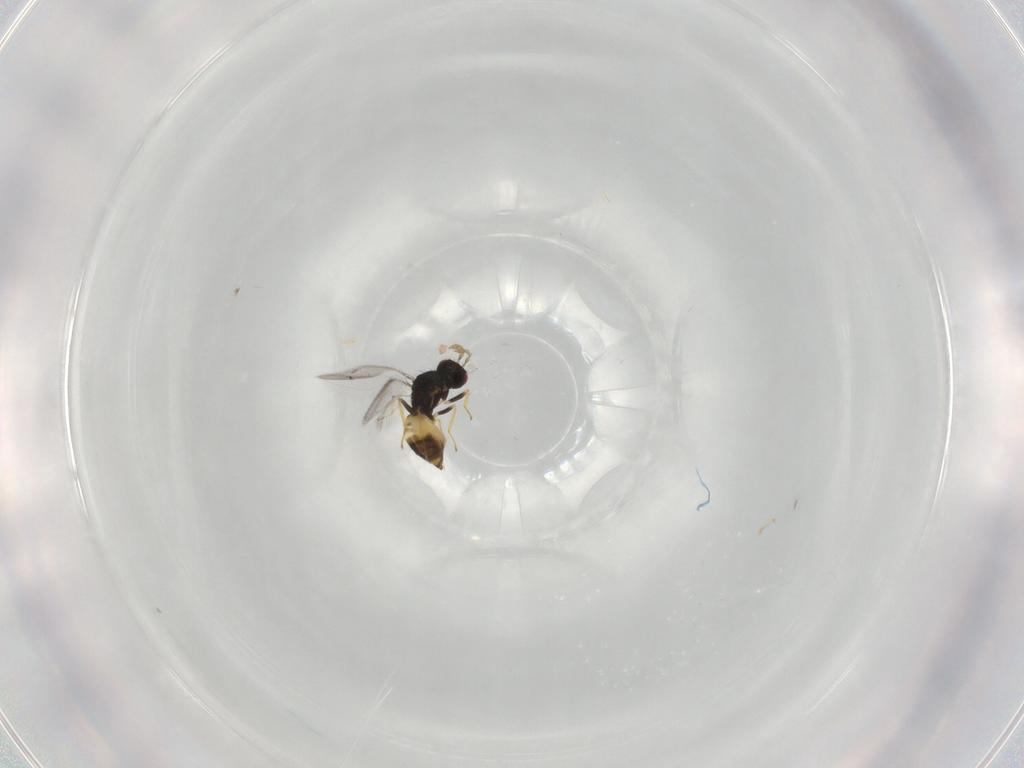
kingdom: Animalia
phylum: Arthropoda
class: Insecta
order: Hymenoptera
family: Eulophidae
